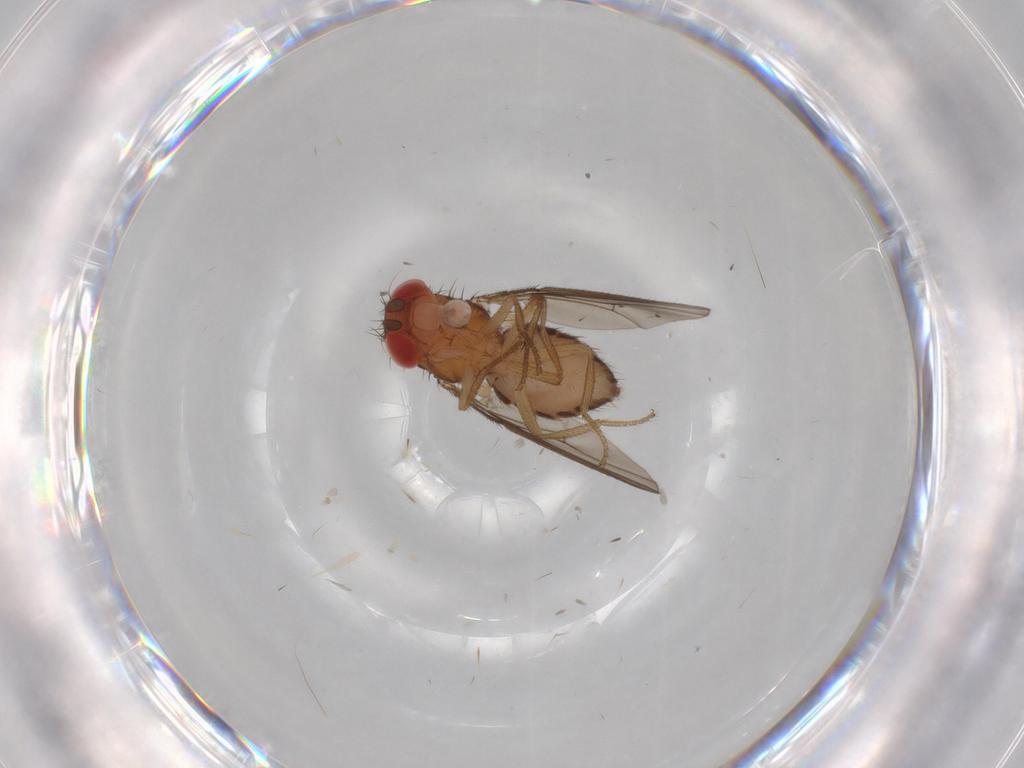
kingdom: Animalia
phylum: Arthropoda
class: Insecta
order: Diptera
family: Drosophilidae
